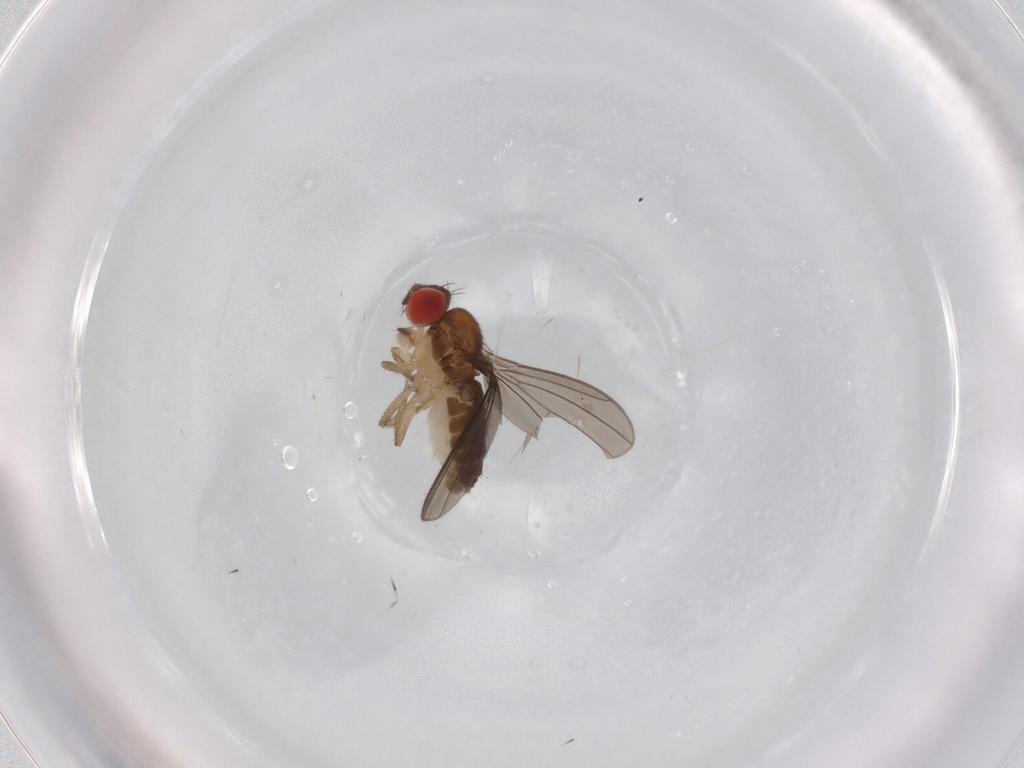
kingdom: Animalia
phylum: Arthropoda
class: Insecta
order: Diptera
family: Drosophilidae
